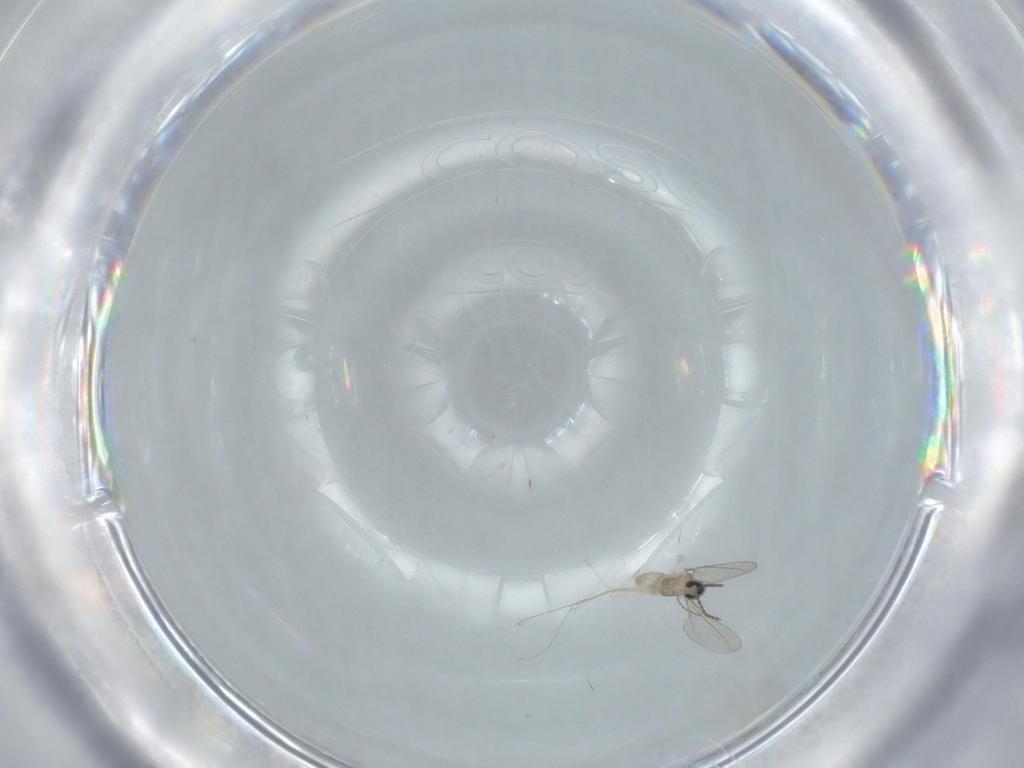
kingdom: Animalia
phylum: Arthropoda
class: Insecta
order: Diptera
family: Cecidomyiidae
